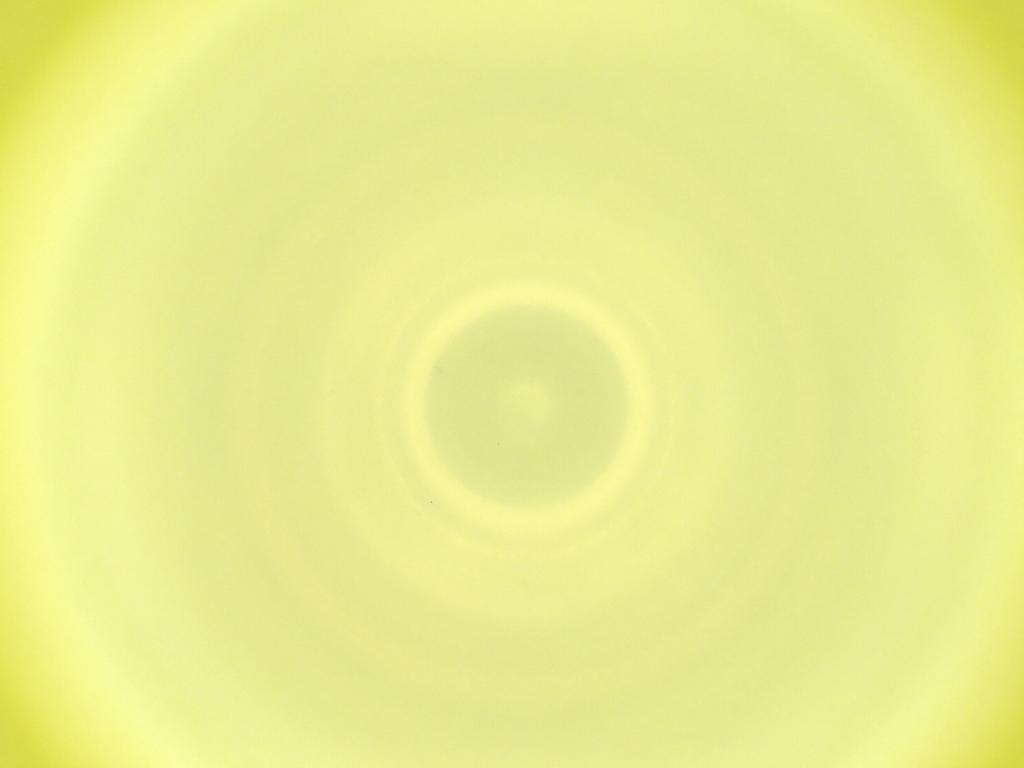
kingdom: Animalia
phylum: Arthropoda
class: Insecta
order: Diptera
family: Cecidomyiidae
